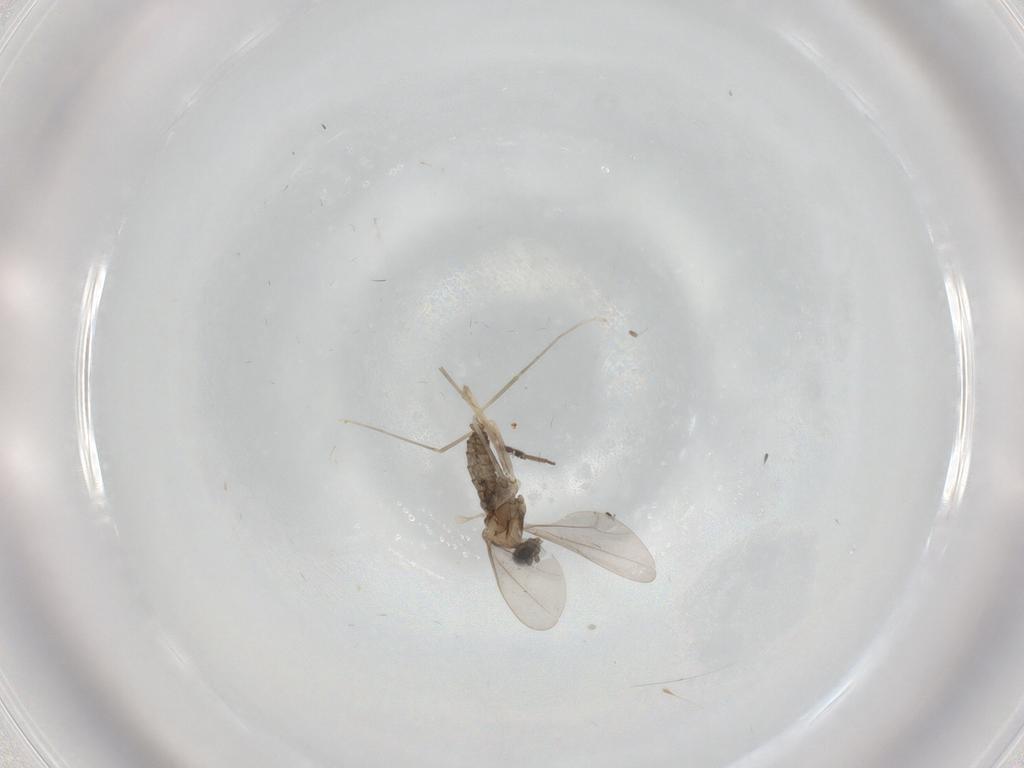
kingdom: Animalia
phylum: Arthropoda
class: Insecta
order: Diptera
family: Cecidomyiidae
